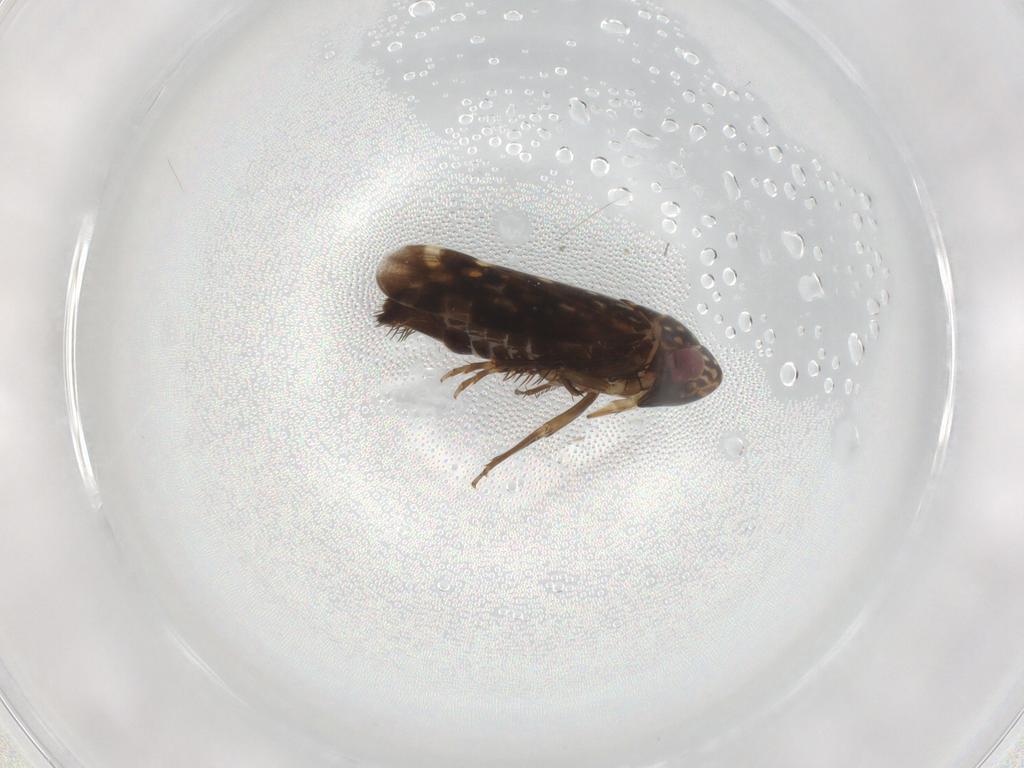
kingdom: Animalia
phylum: Arthropoda
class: Insecta
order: Hemiptera
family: Cicadellidae
